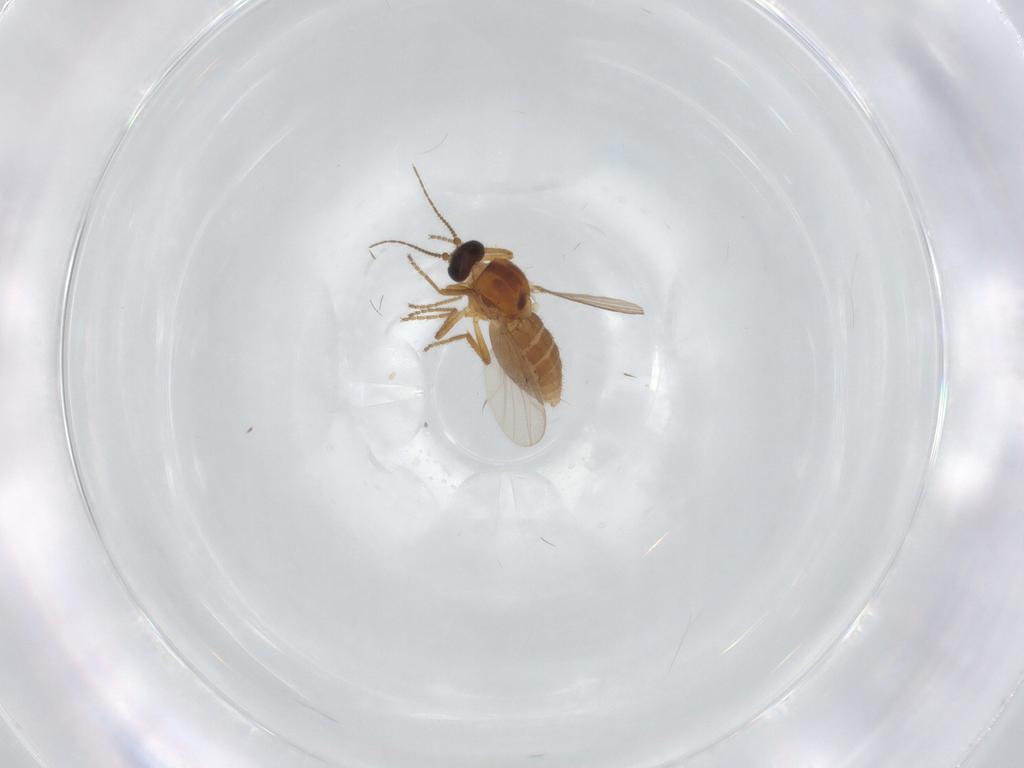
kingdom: Animalia
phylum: Arthropoda
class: Insecta
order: Diptera
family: Ceratopogonidae
